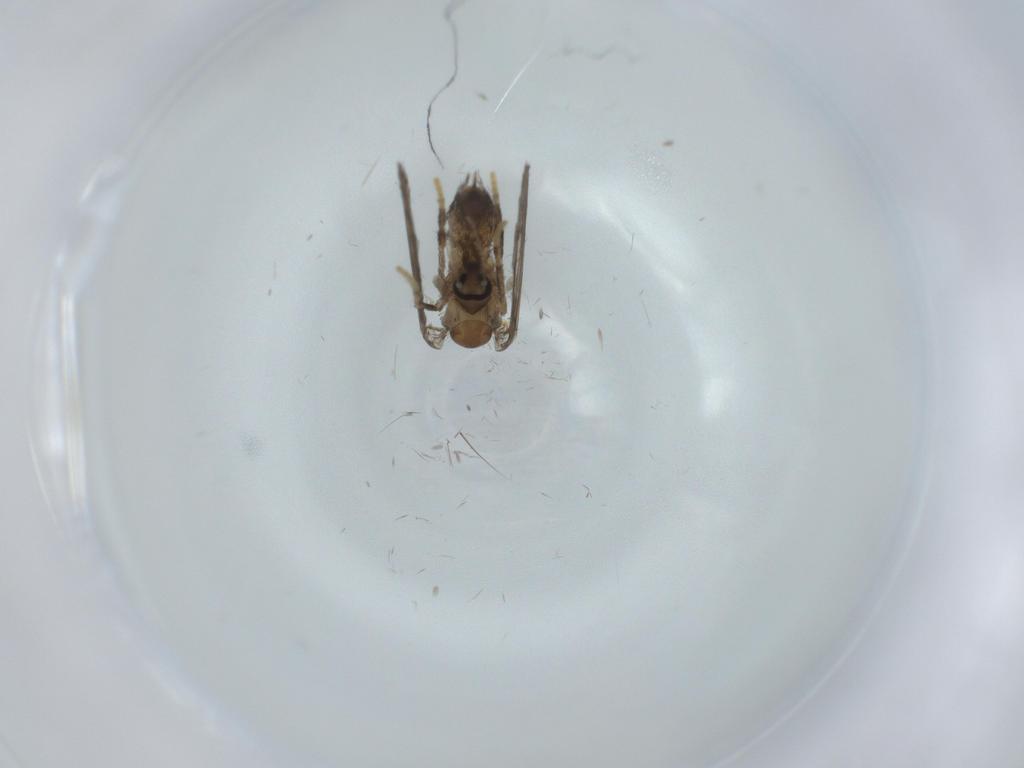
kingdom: Animalia
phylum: Arthropoda
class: Insecta
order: Diptera
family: Psychodidae
